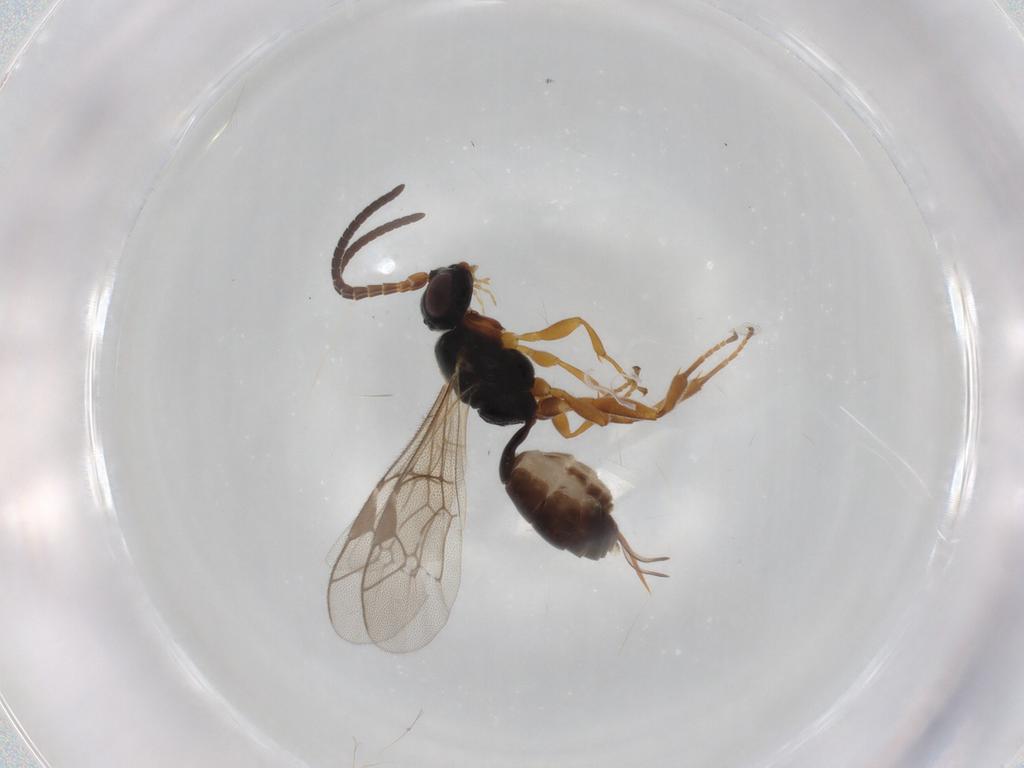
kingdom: Animalia
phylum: Arthropoda
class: Insecta
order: Hymenoptera
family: Ichneumonidae
